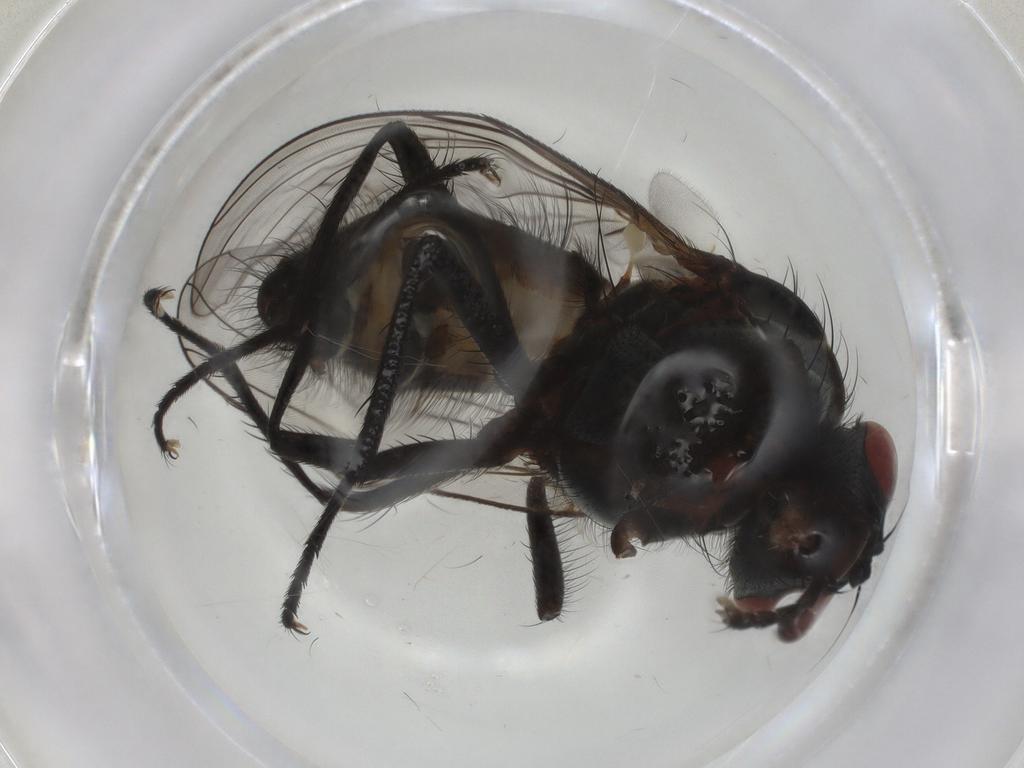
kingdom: Animalia
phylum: Arthropoda
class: Insecta
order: Diptera
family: Anthomyiidae
